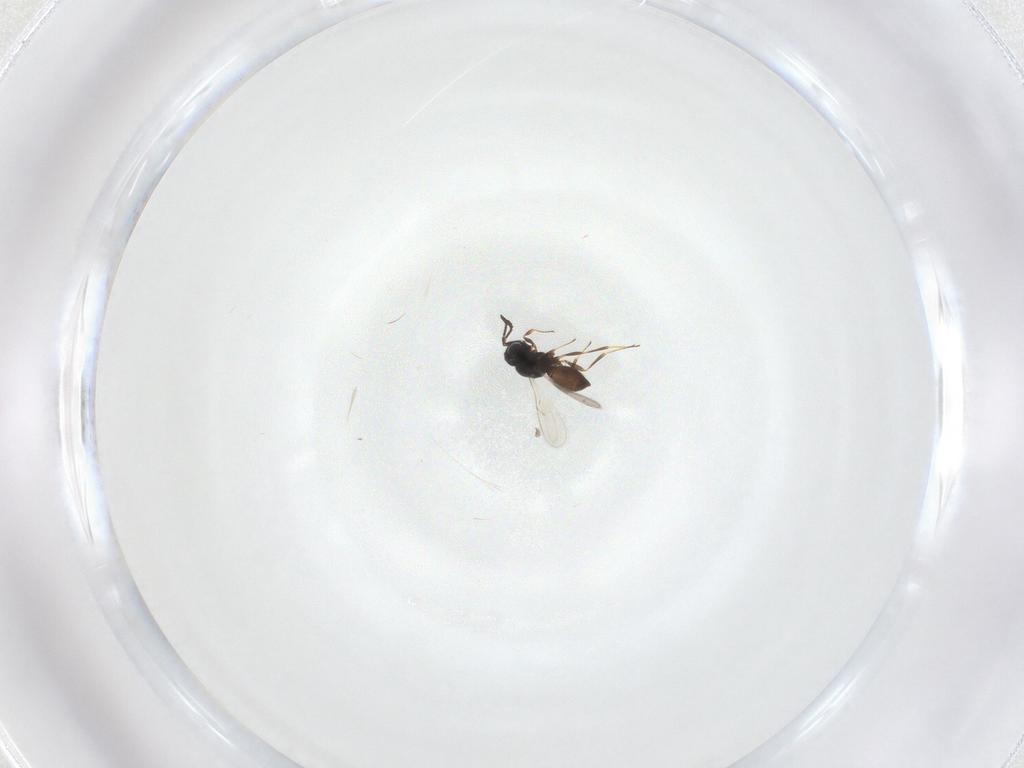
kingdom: Animalia
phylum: Arthropoda
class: Insecta
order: Hymenoptera
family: Scelionidae
